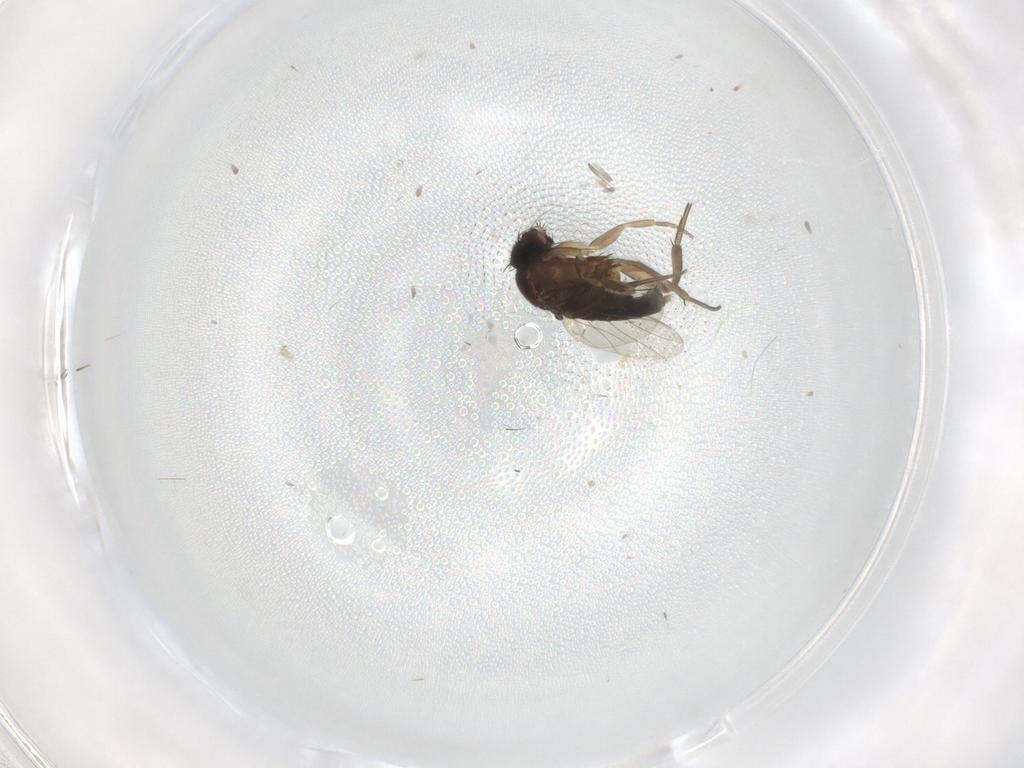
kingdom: Animalia
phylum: Arthropoda
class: Insecta
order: Diptera
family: Phoridae
